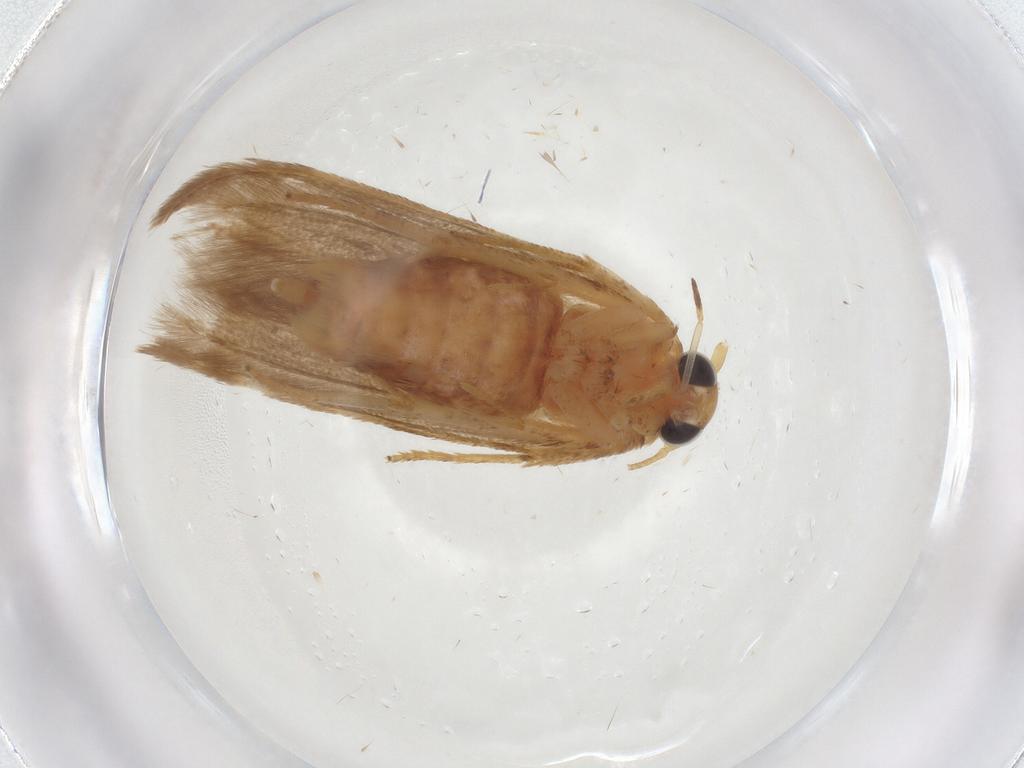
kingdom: Animalia
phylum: Arthropoda
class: Insecta
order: Lepidoptera
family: Blastobasidae
